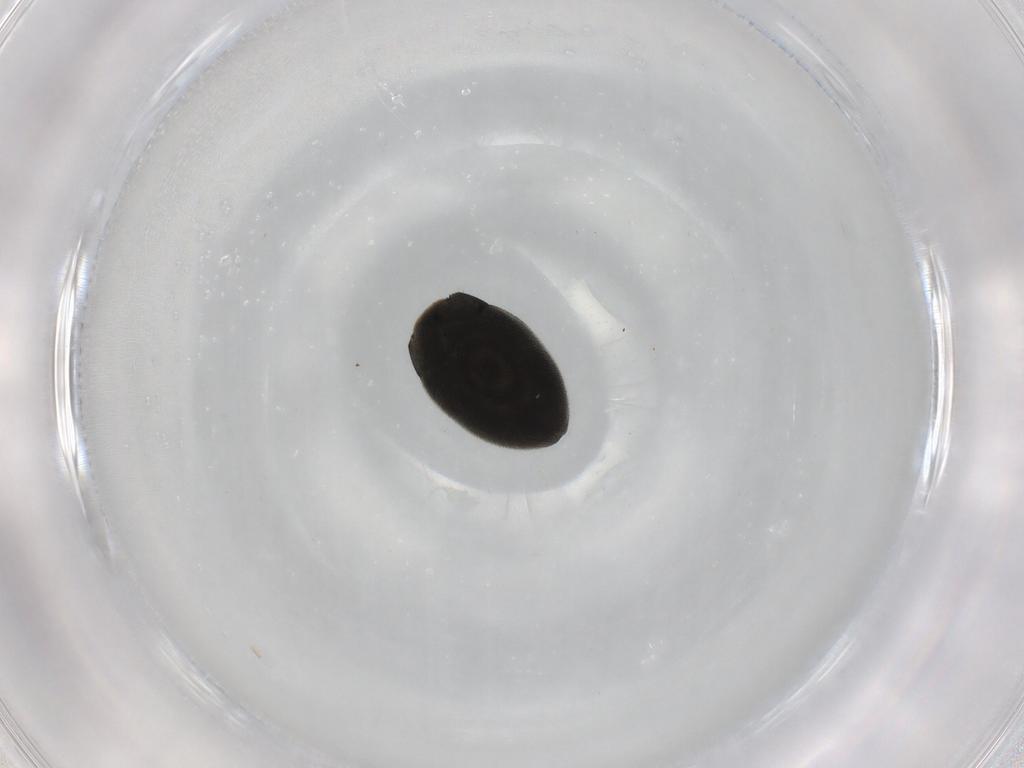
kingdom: Animalia
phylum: Arthropoda
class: Insecta
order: Coleoptera
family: Limnichidae
